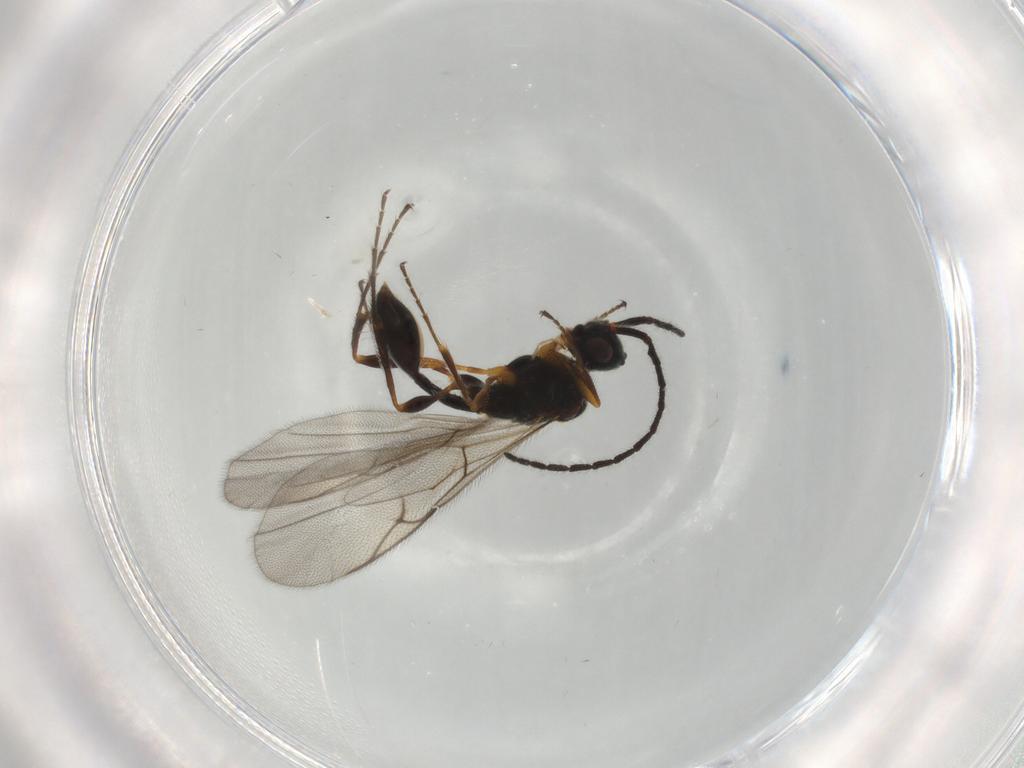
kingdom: Animalia
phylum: Arthropoda
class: Insecta
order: Hymenoptera
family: Diapriidae
